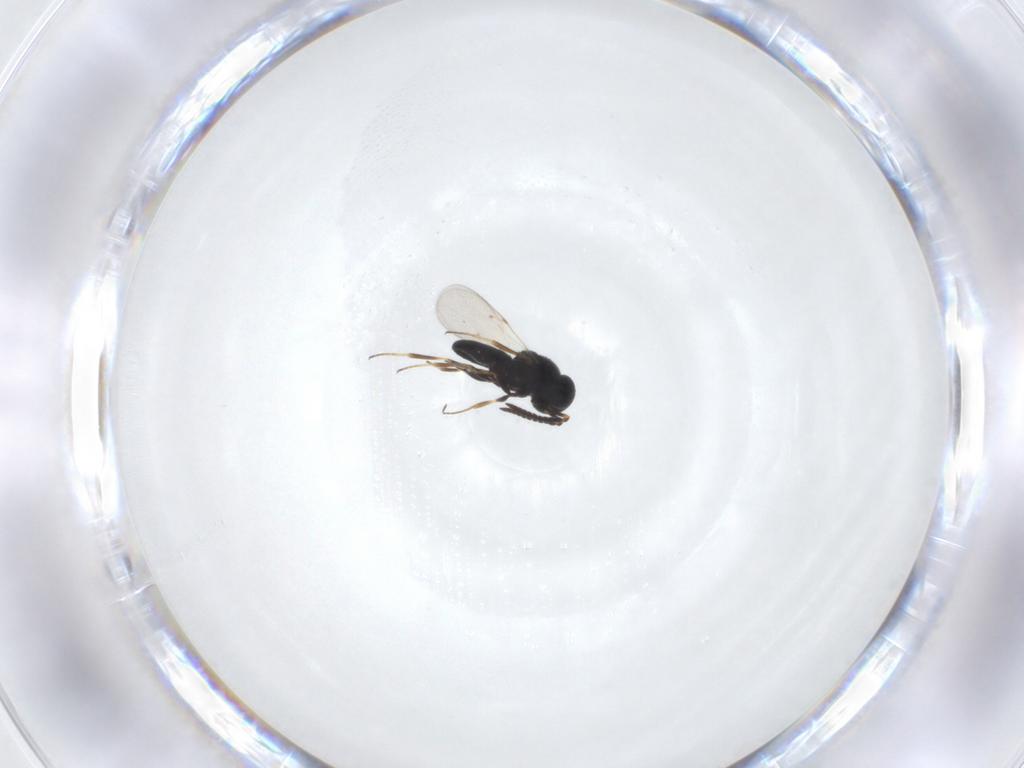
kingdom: Animalia
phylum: Arthropoda
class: Insecta
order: Hymenoptera
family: Scelionidae
